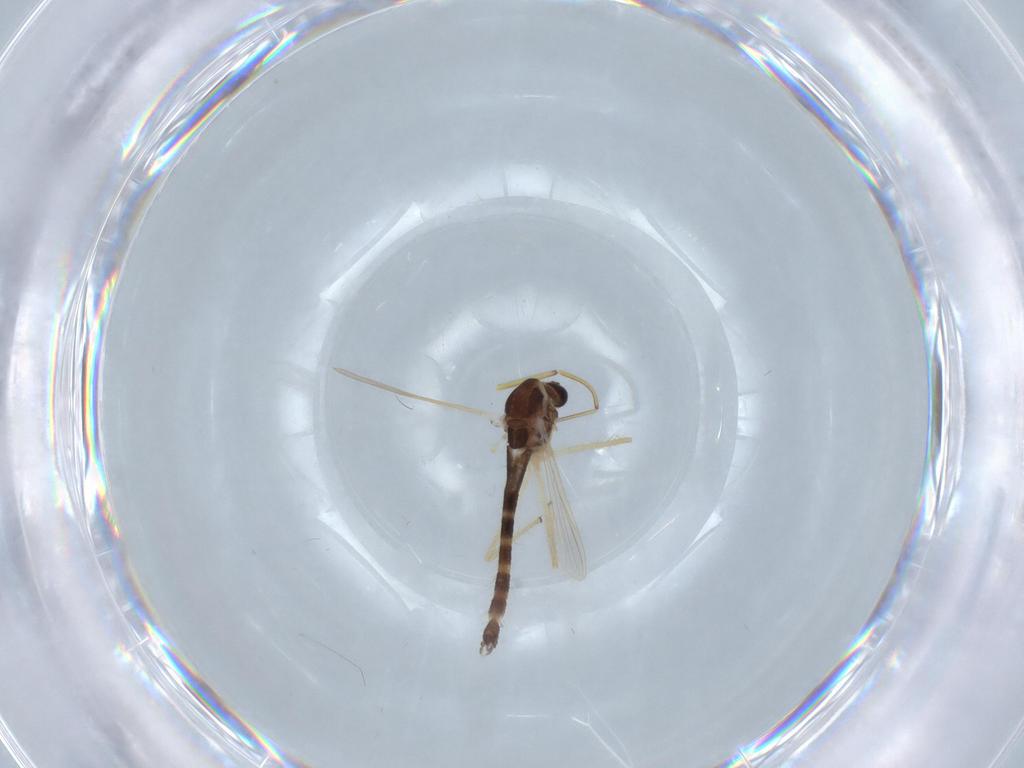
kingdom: Animalia
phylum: Arthropoda
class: Insecta
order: Diptera
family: Chironomidae
